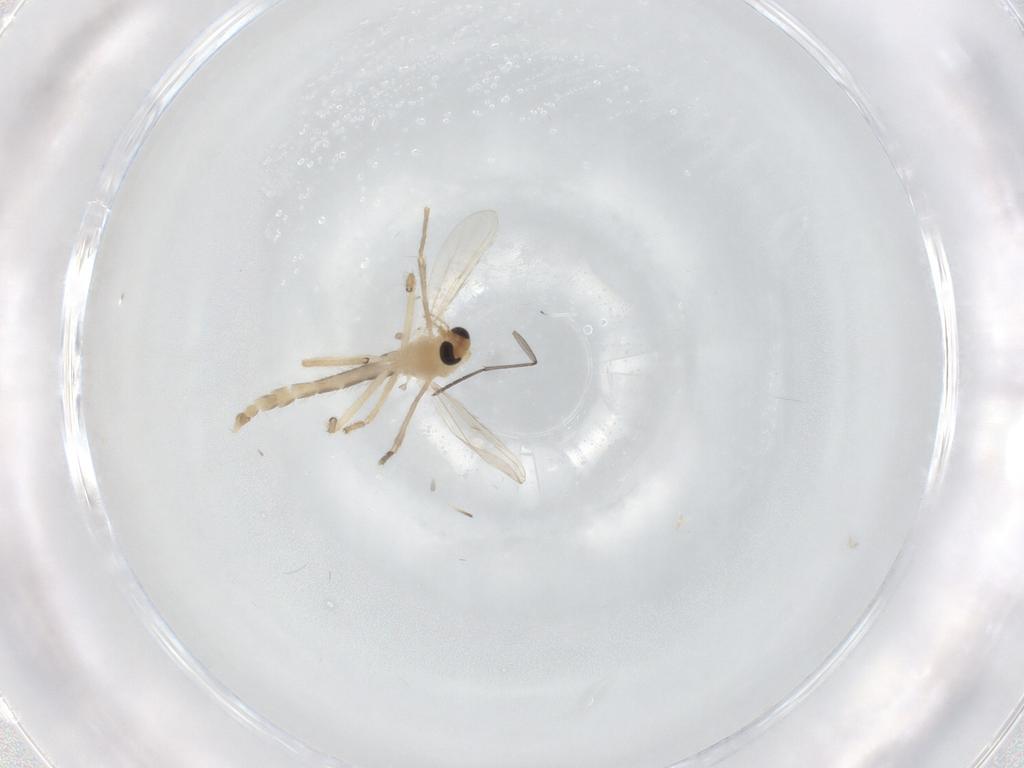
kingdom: Animalia
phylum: Arthropoda
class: Insecta
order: Diptera
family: Chironomidae
